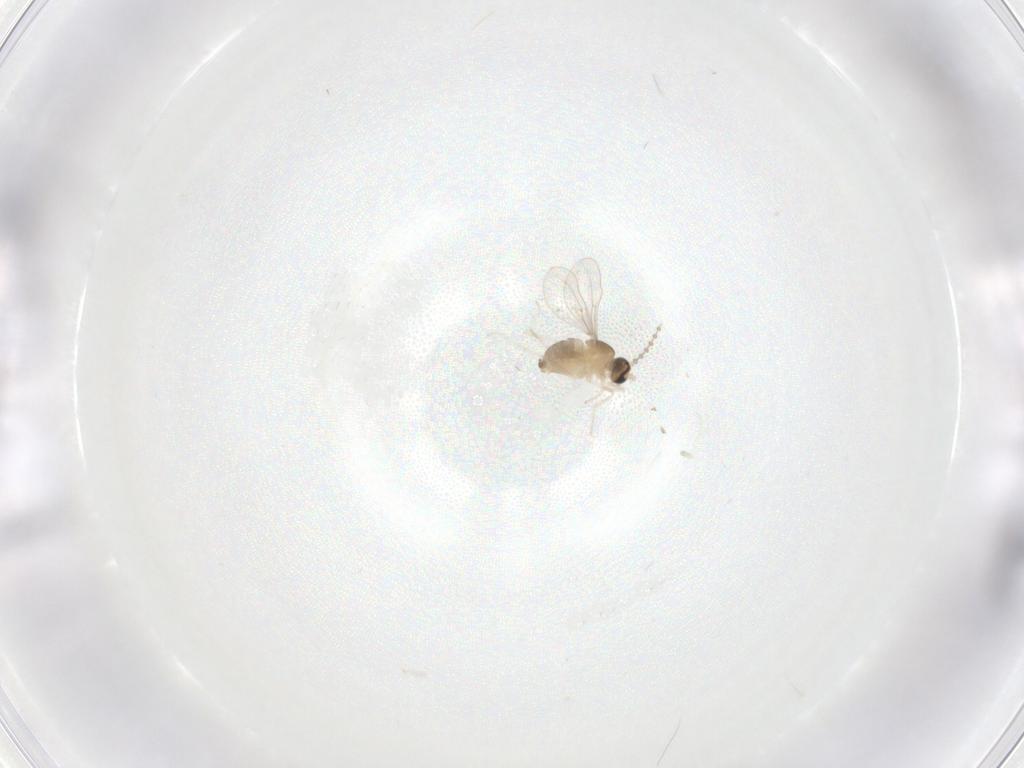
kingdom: Animalia
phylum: Arthropoda
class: Insecta
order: Diptera
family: Cecidomyiidae
